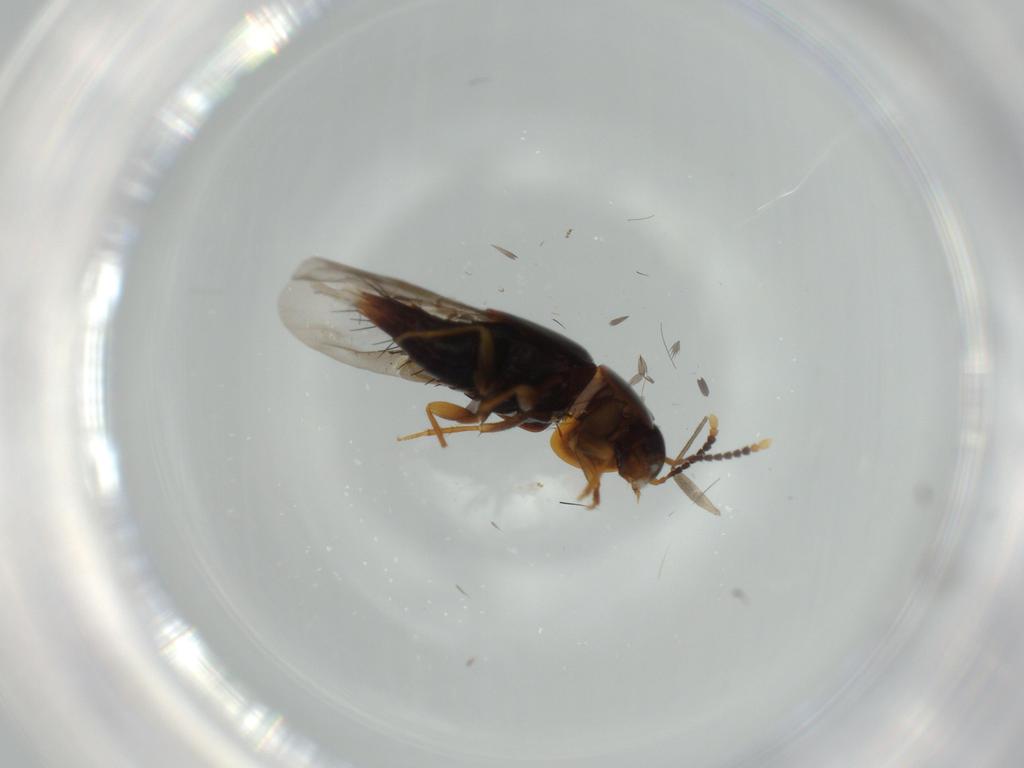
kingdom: Animalia
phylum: Arthropoda
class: Insecta
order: Coleoptera
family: Staphylinidae
